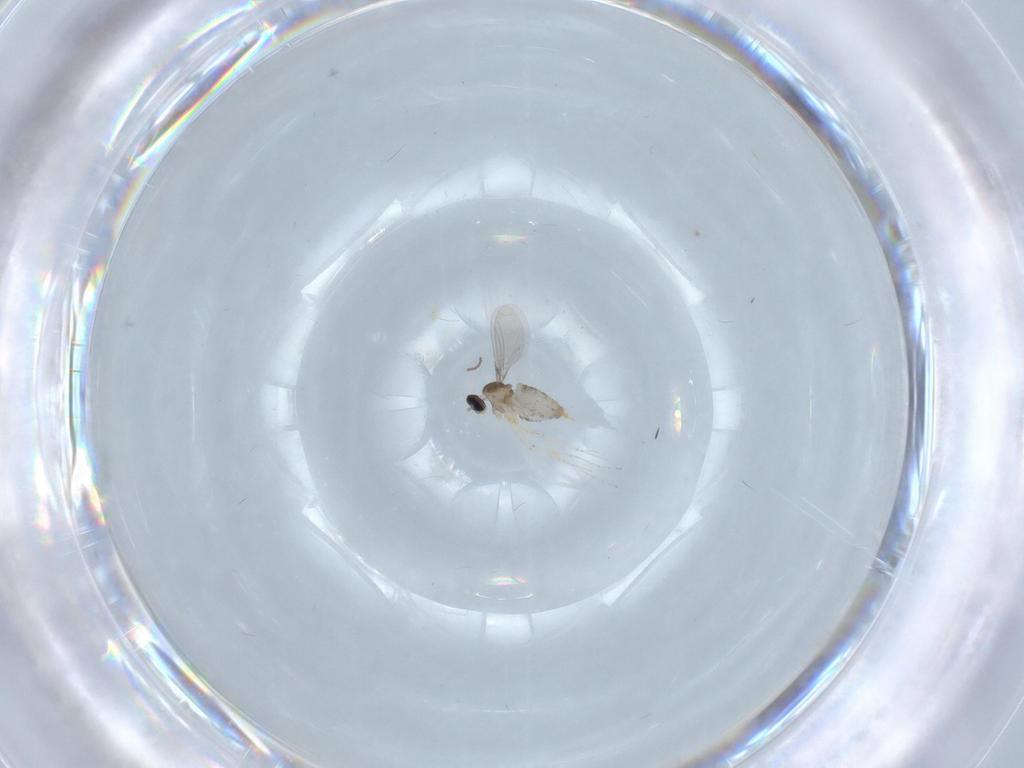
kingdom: Animalia
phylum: Arthropoda
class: Insecta
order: Diptera
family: Cecidomyiidae
